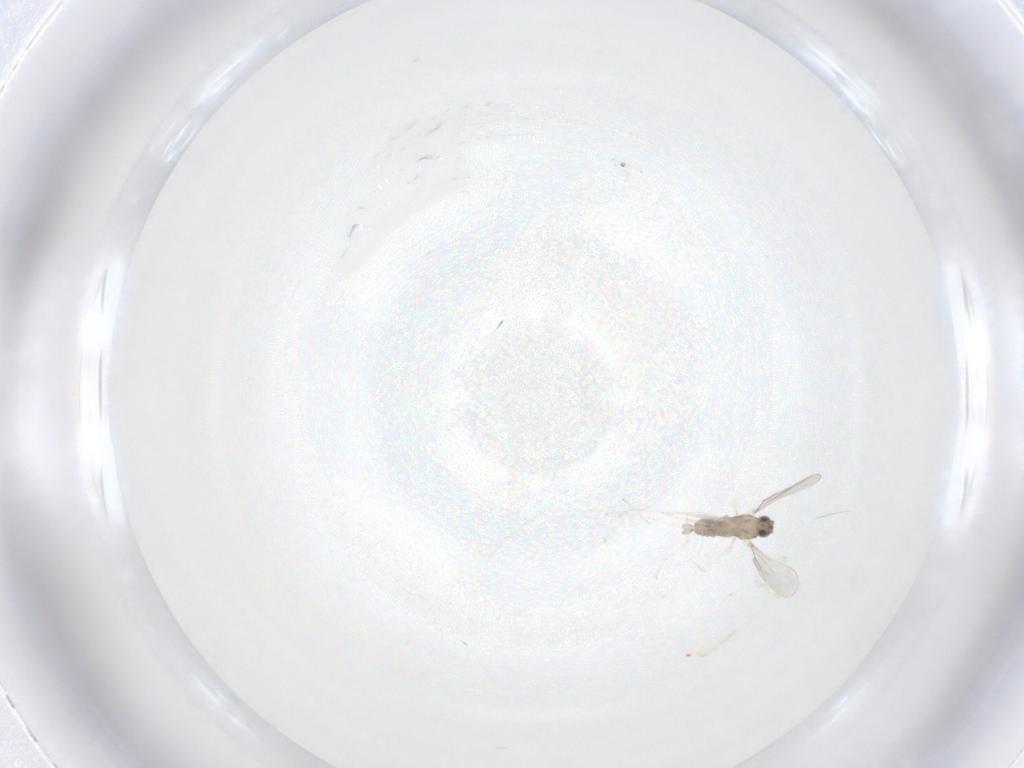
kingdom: Animalia
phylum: Arthropoda
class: Insecta
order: Diptera
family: Cecidomyiidae
